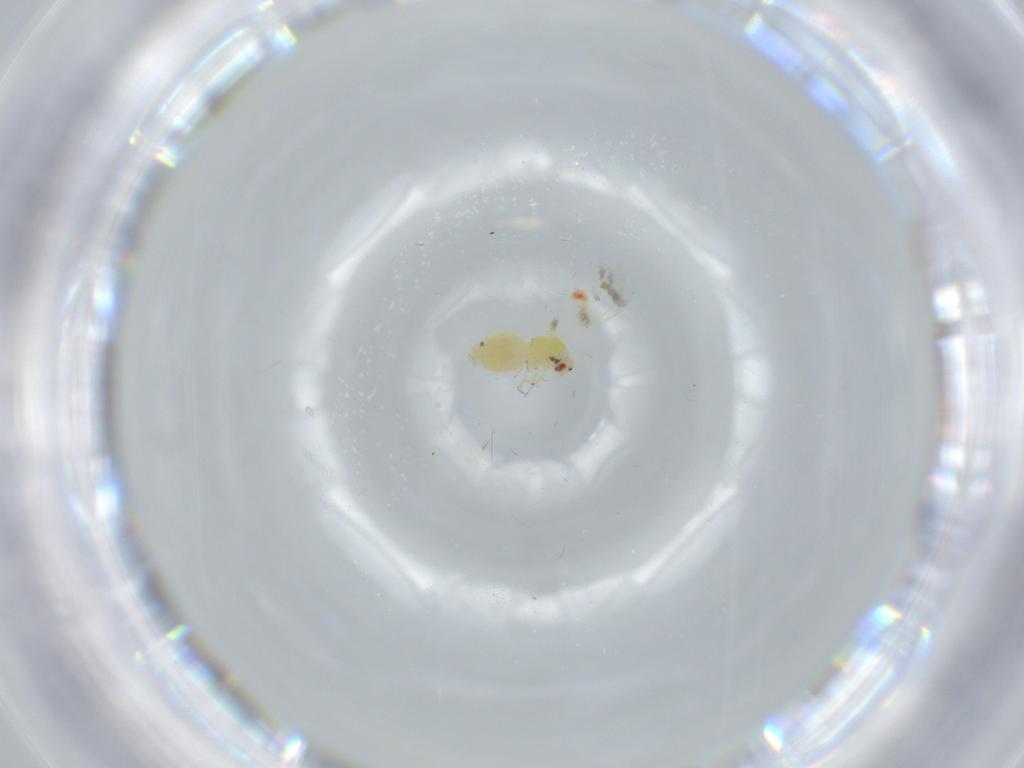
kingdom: Animalia
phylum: Arthropoda
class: Insecta
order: Hemiptera
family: Aleyrodidae
